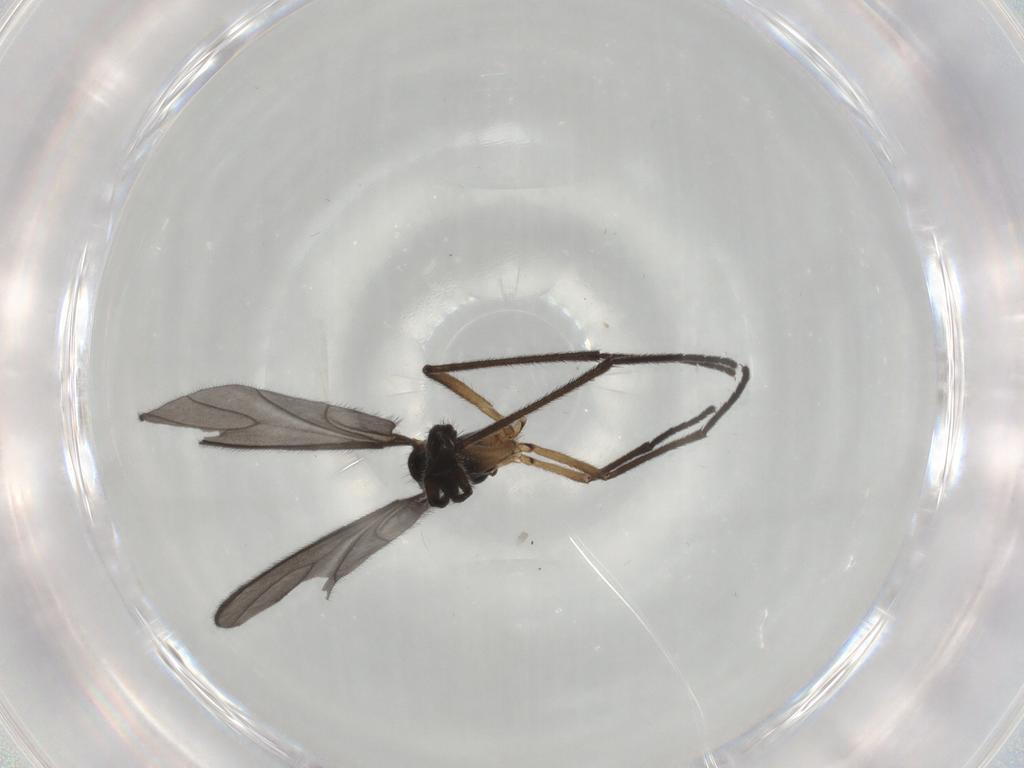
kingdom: Animalia
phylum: Arthropoda
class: Insecta
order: Diptera
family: Sciaridae
